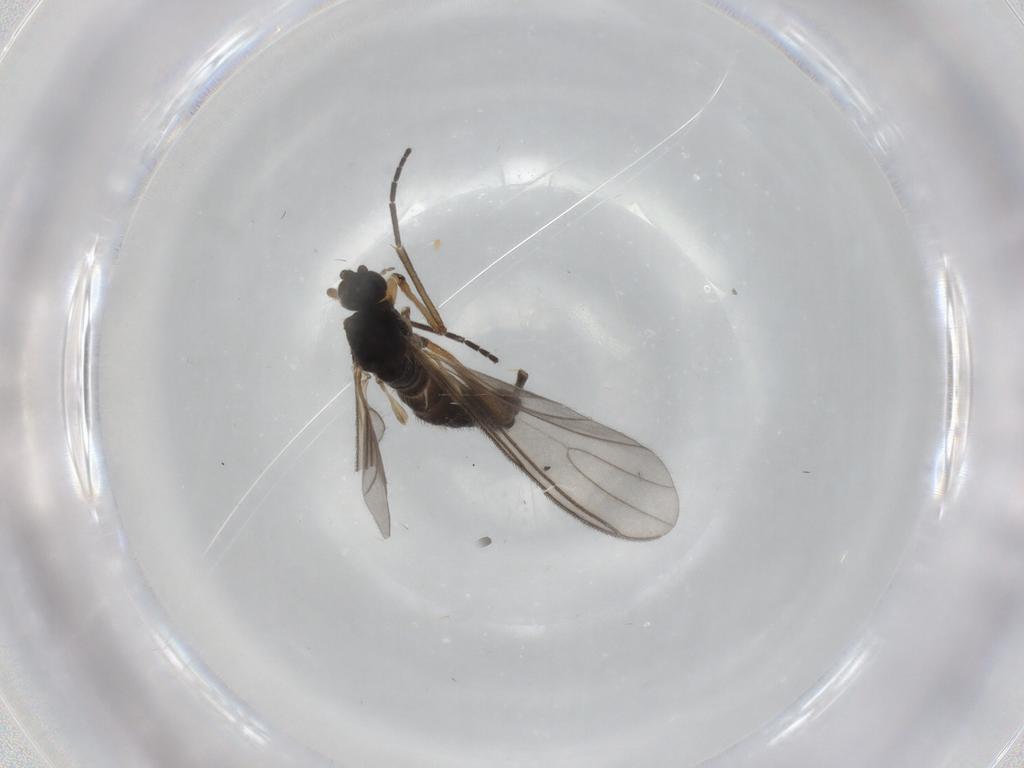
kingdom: Animalia
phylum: Arthropoda
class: Insecta
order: Diptera
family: Sciaridae
